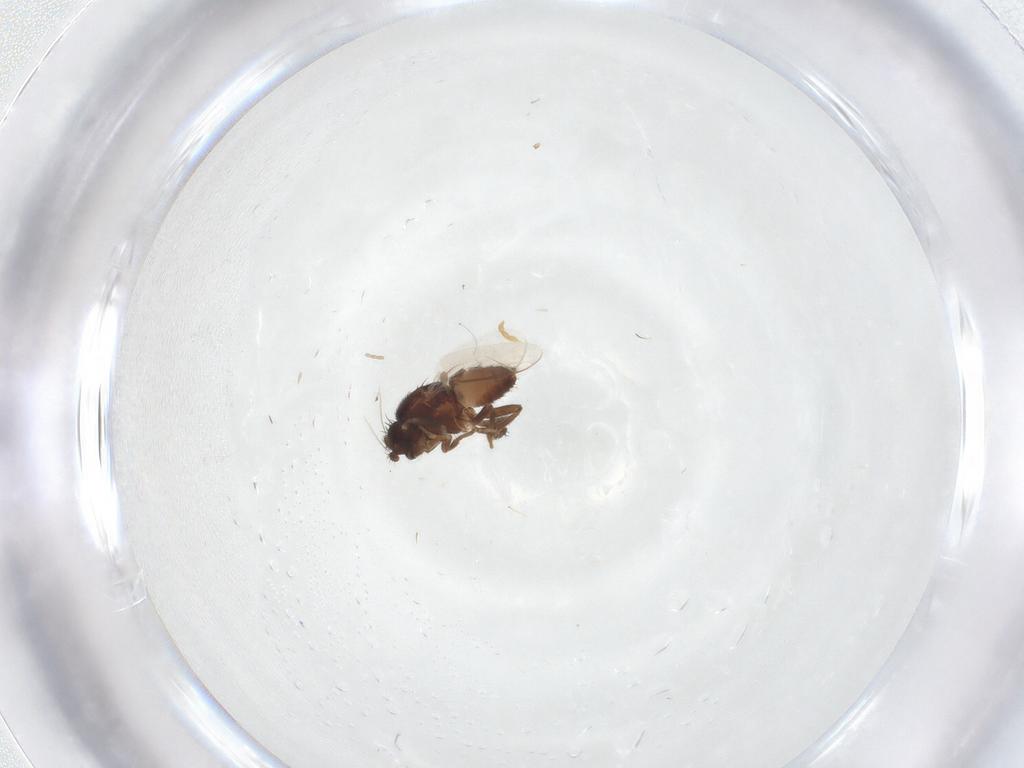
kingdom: Animalia
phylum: Arthropoda
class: Insecta
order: Diptera
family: Sphaeroceridae
